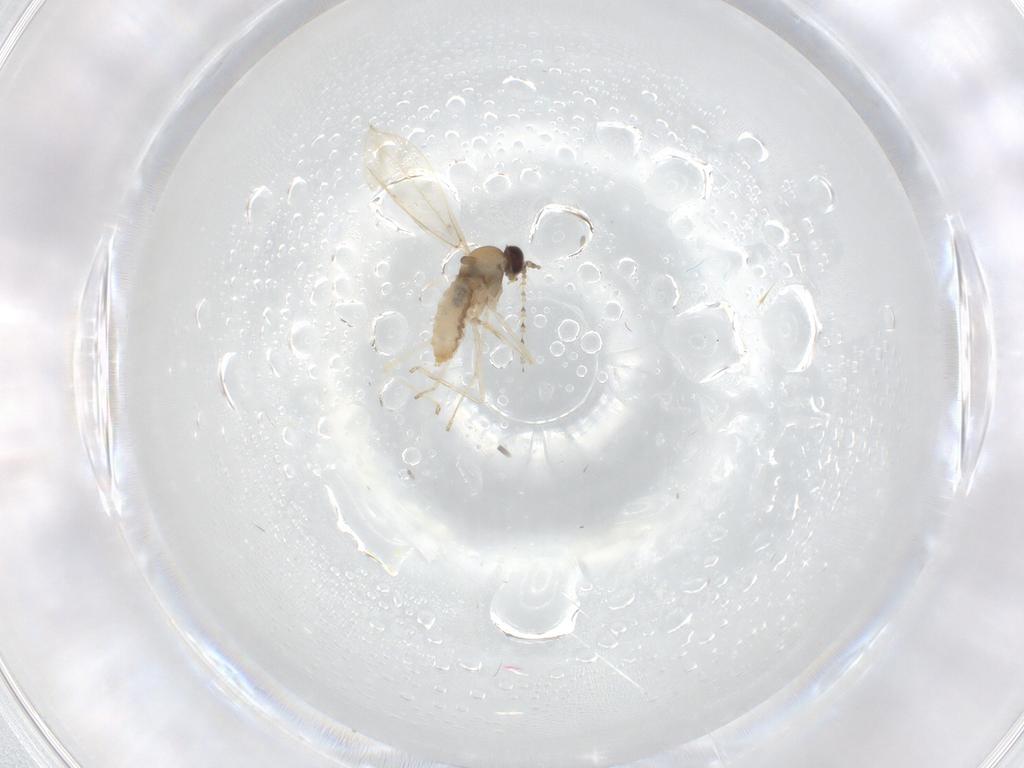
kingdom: Animalia
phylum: Arthropoda
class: Insecta
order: Diptera
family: Cecidomyiidae
